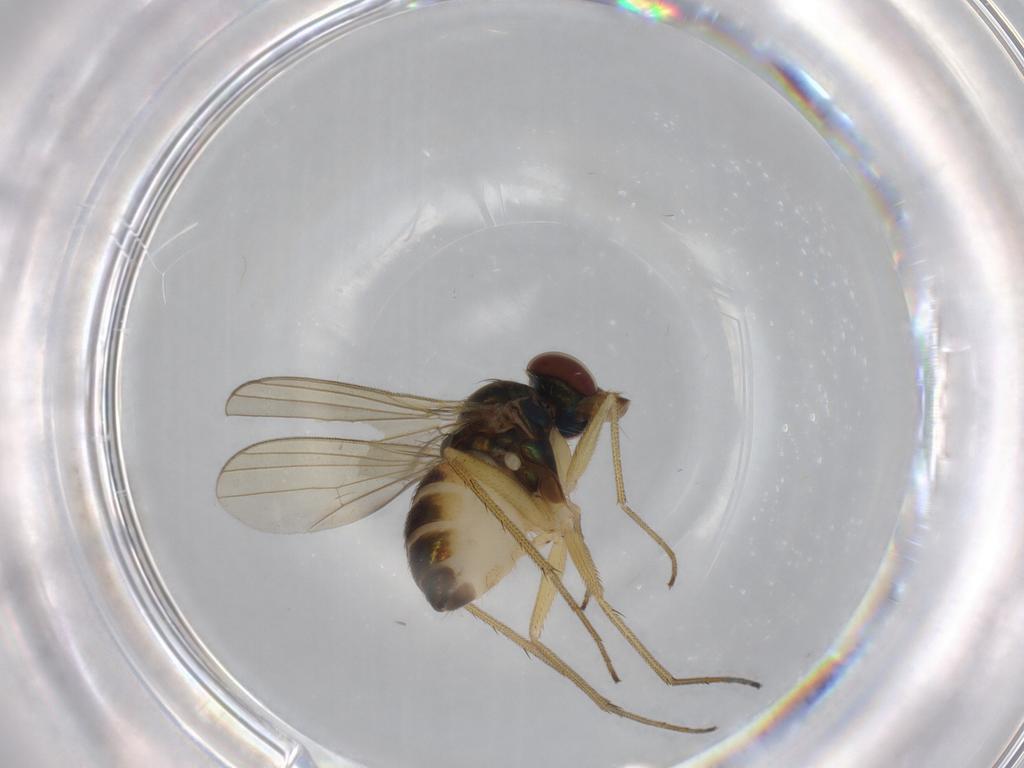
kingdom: Animalia
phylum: Arthropoda
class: Insecta
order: Diptera
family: Dolichopodidae
